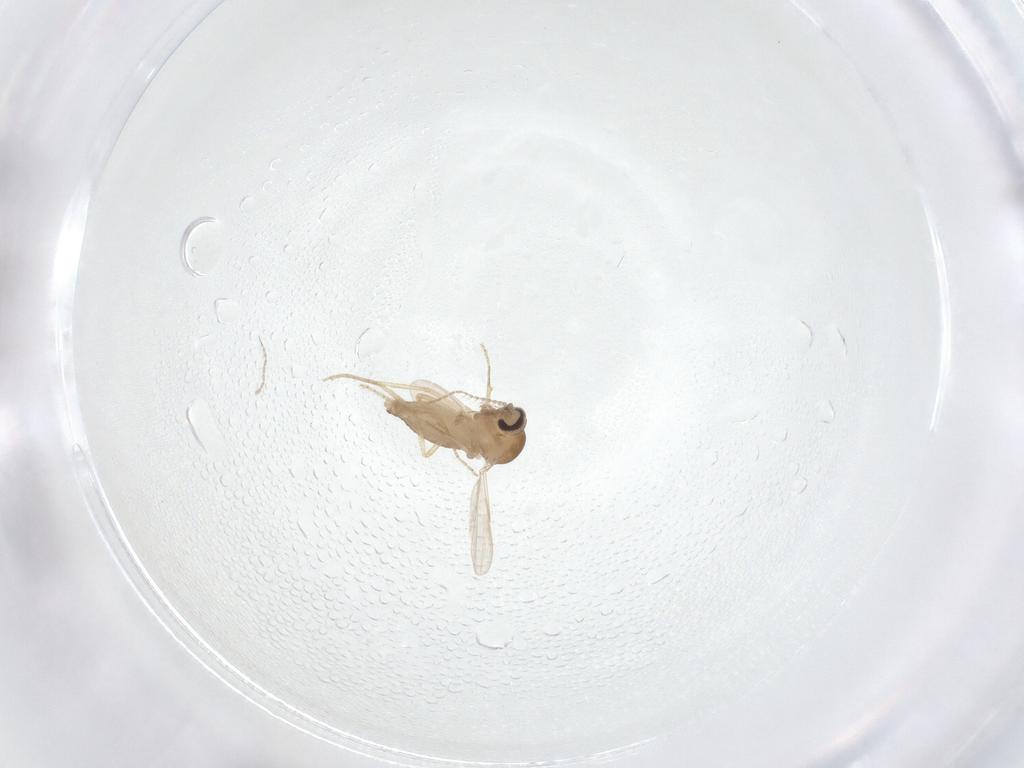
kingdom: Animalia
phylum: Arthropoda
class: Insecta
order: Diptera
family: Ceratopogonidae
